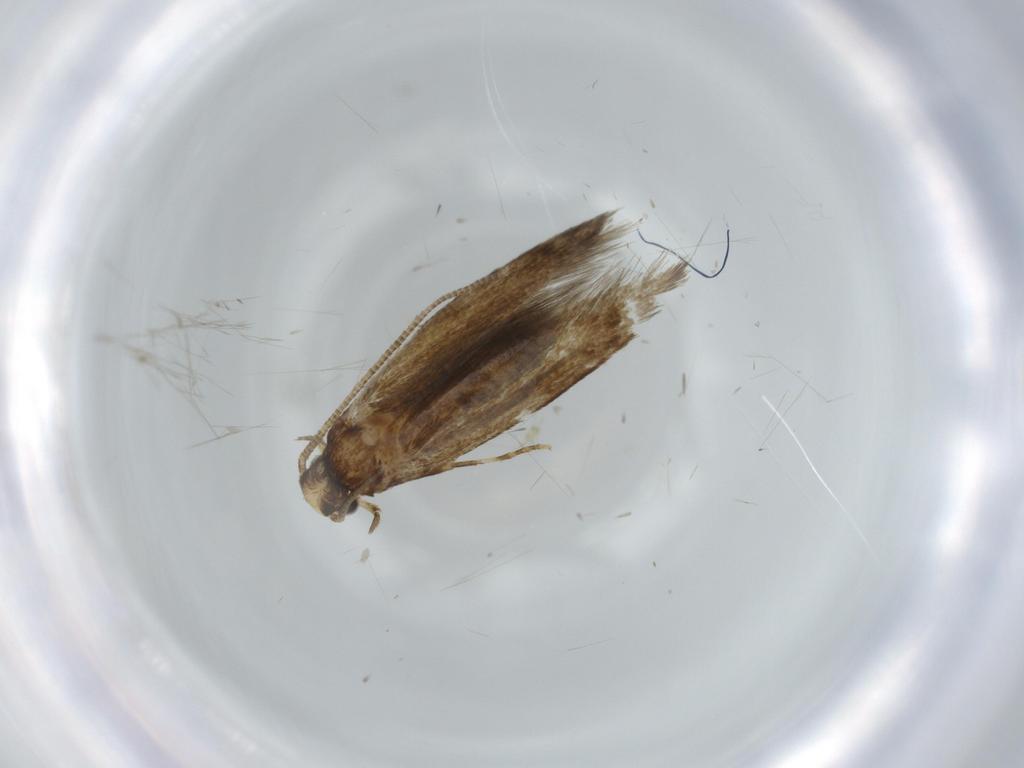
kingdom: Animalia
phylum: Arthropoda
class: Insecta
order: Lepidoptera
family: Tineidae
